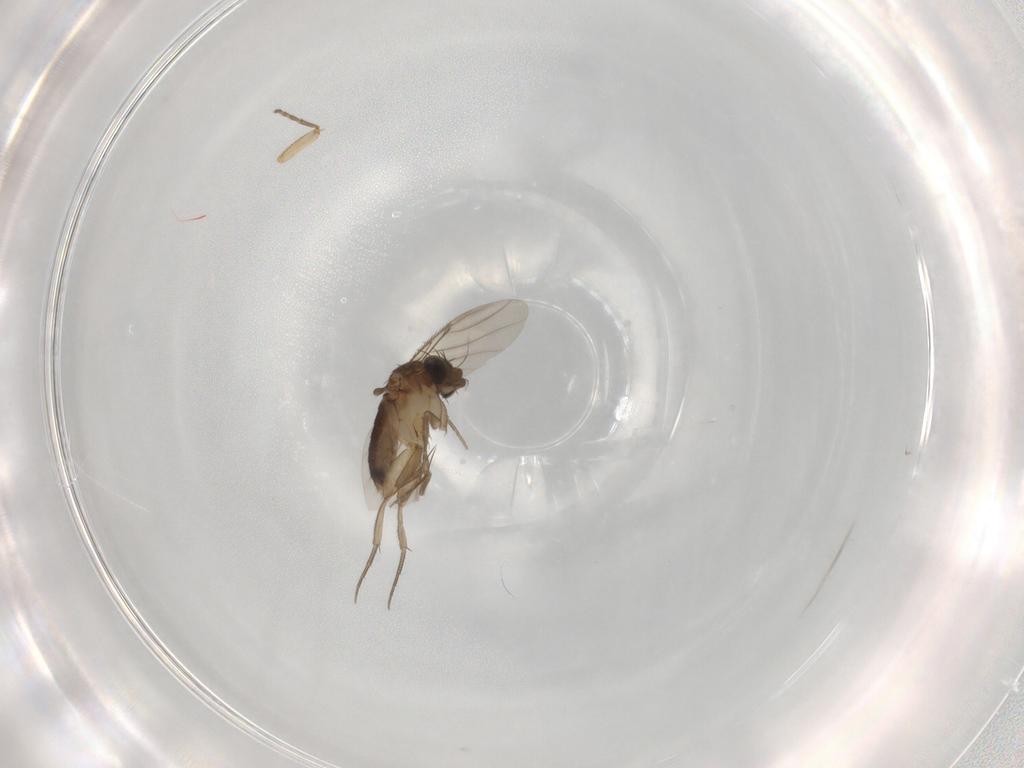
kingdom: Animalia
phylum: Arthropoda
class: Insecta
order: Diptera
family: Phoridae
